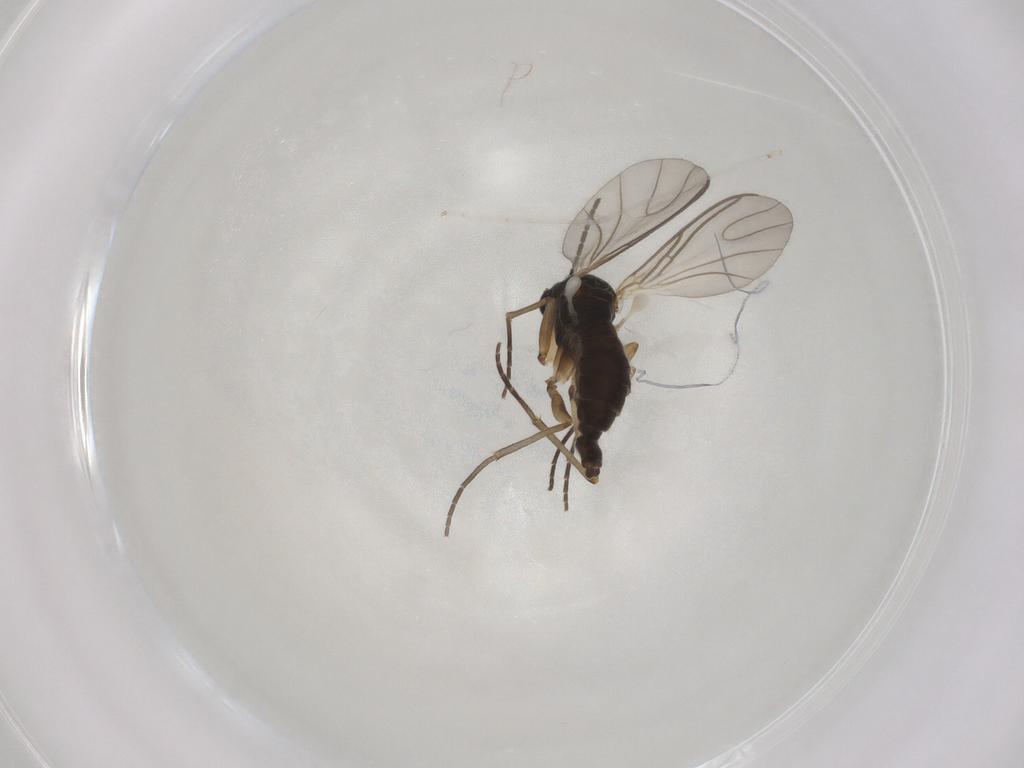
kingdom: Animalia
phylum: Arthropoda
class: Insecta
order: Diptera
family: Sciaridae
